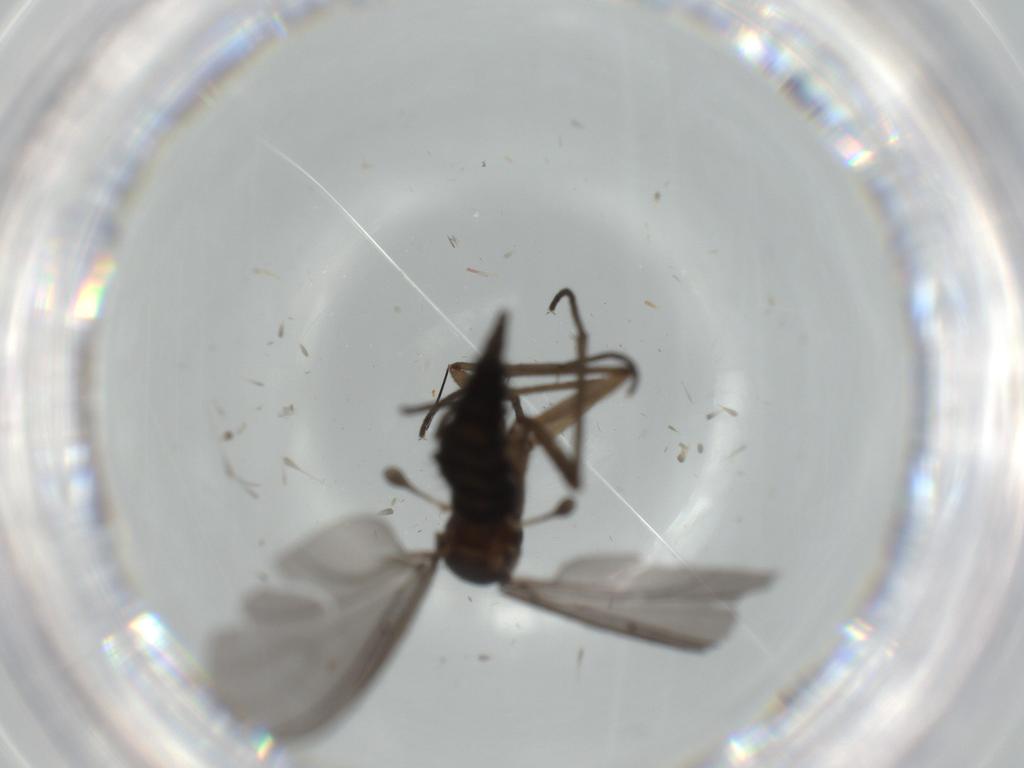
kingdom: Animalia
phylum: Arthropoda
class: Insecta
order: Diptera
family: Sciaridae
